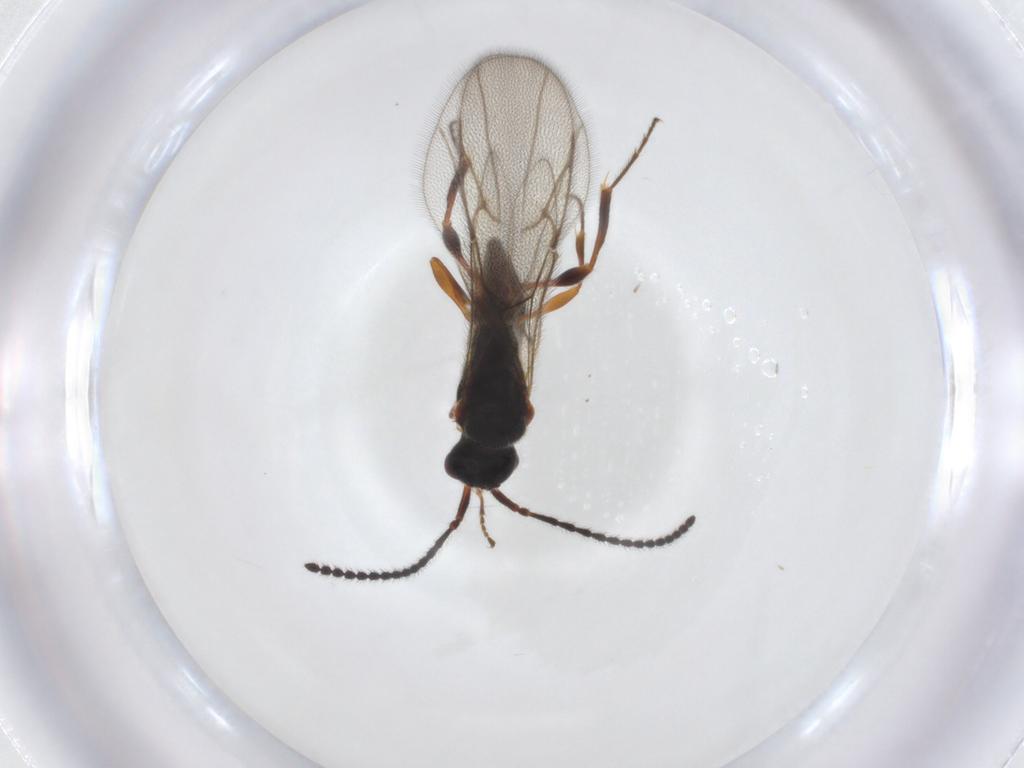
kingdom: Animalia
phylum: Arthropoda
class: Insecta
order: Hymenoptera
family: Diapriidae
